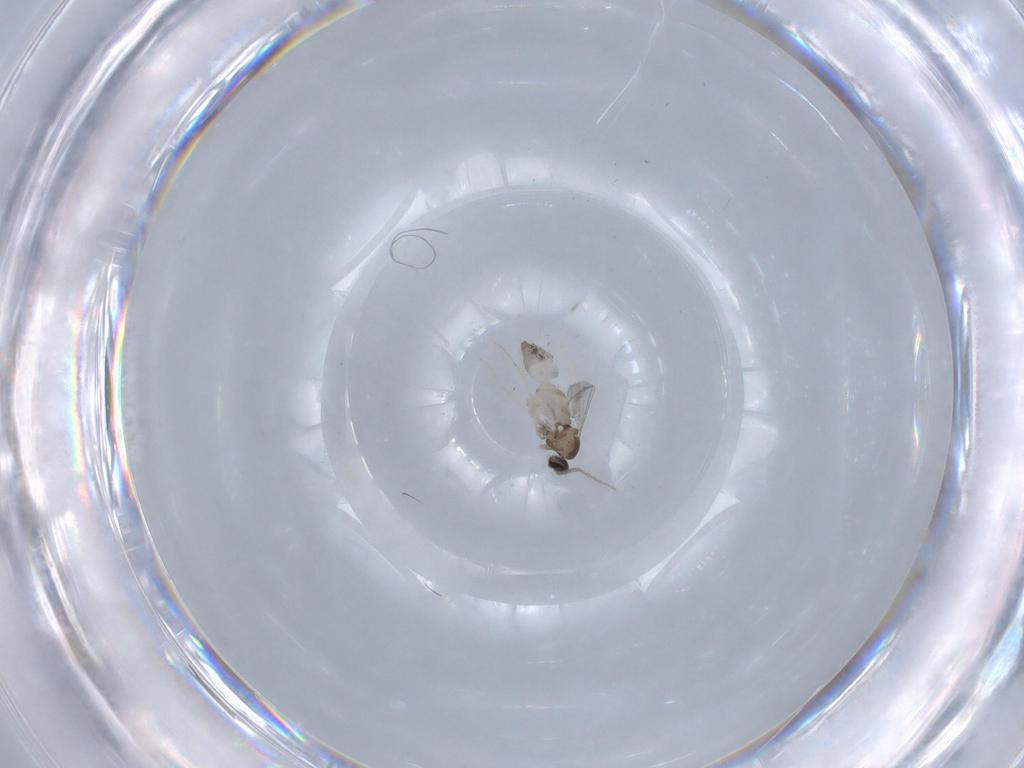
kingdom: Animalia
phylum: Arthropoda
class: Insecta
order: Diptera
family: Cecidomyiidae
